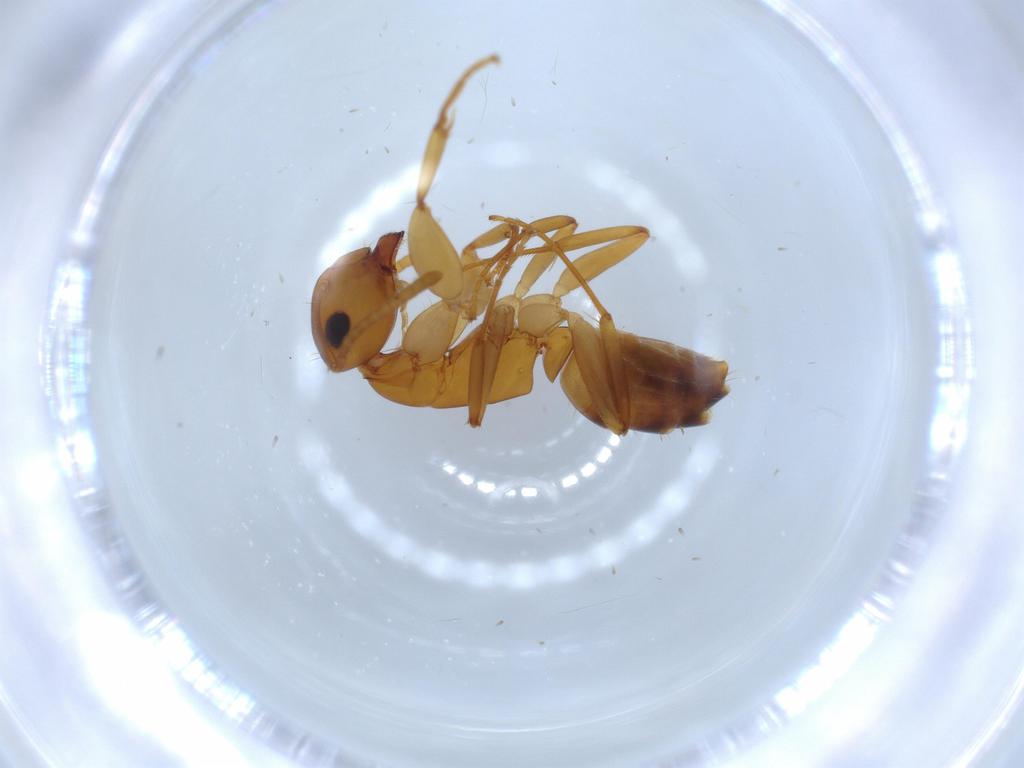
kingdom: Animalia
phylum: Arthropoda
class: Insecta
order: Hymenoptera
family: Formicidae
